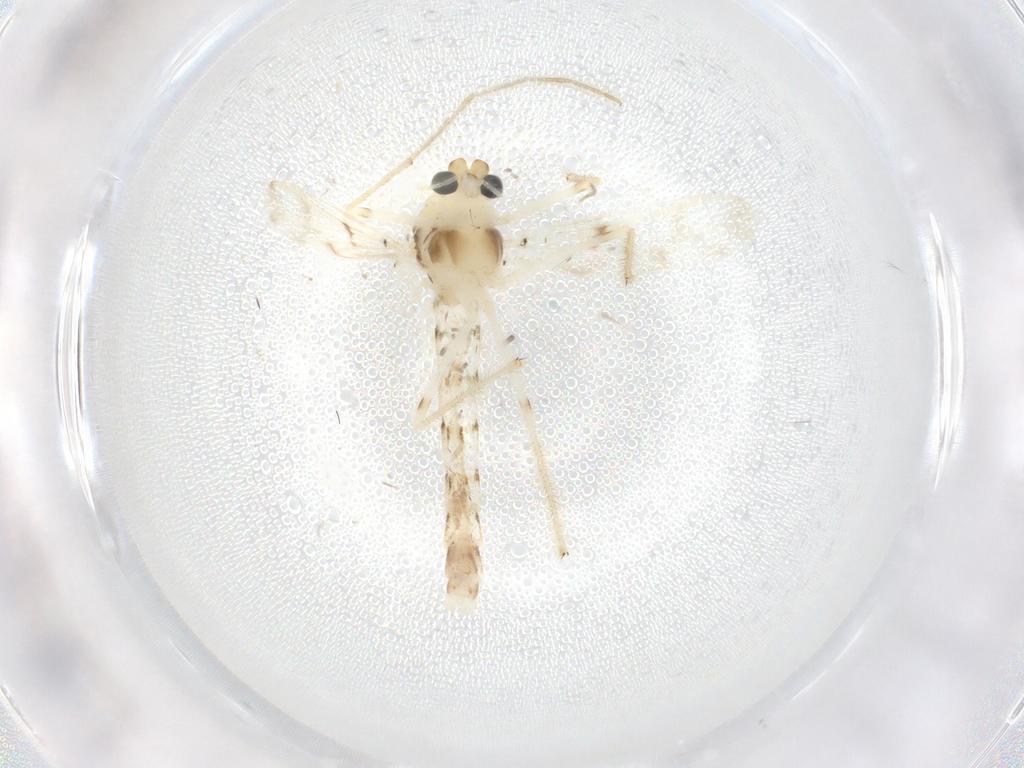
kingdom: Animalia
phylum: Arthropoda
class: Insecta
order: Diptera
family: Chironomidae
